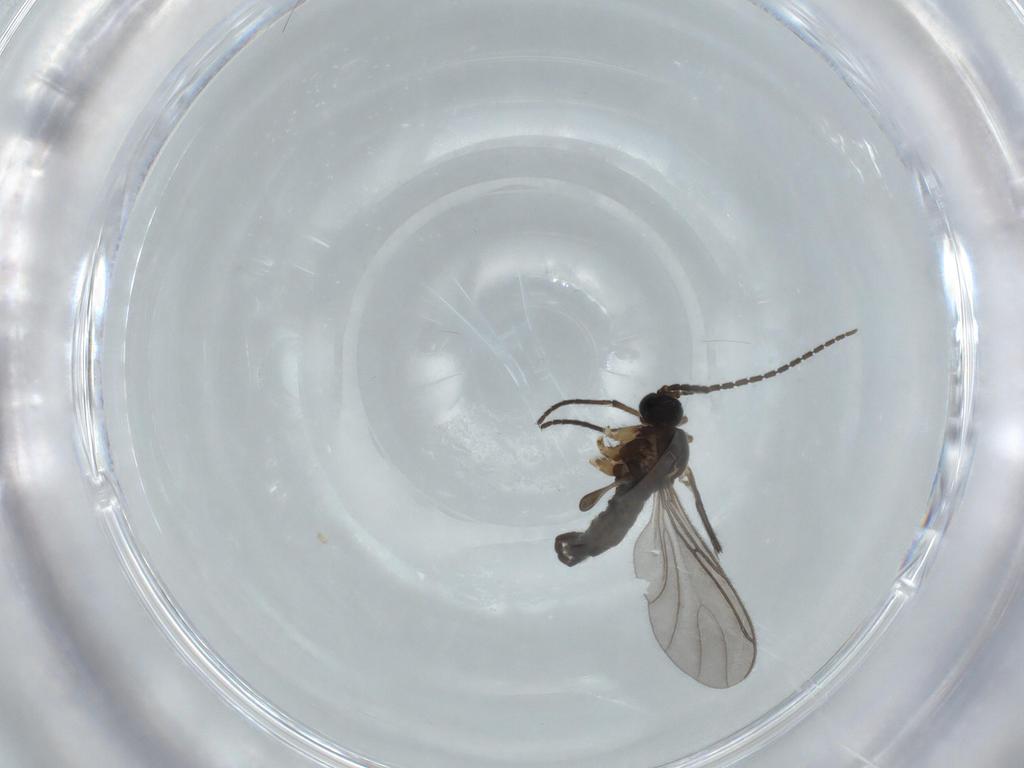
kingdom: Animalia
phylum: Arthropoda
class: Insecta
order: Diptera
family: Sciaridae
